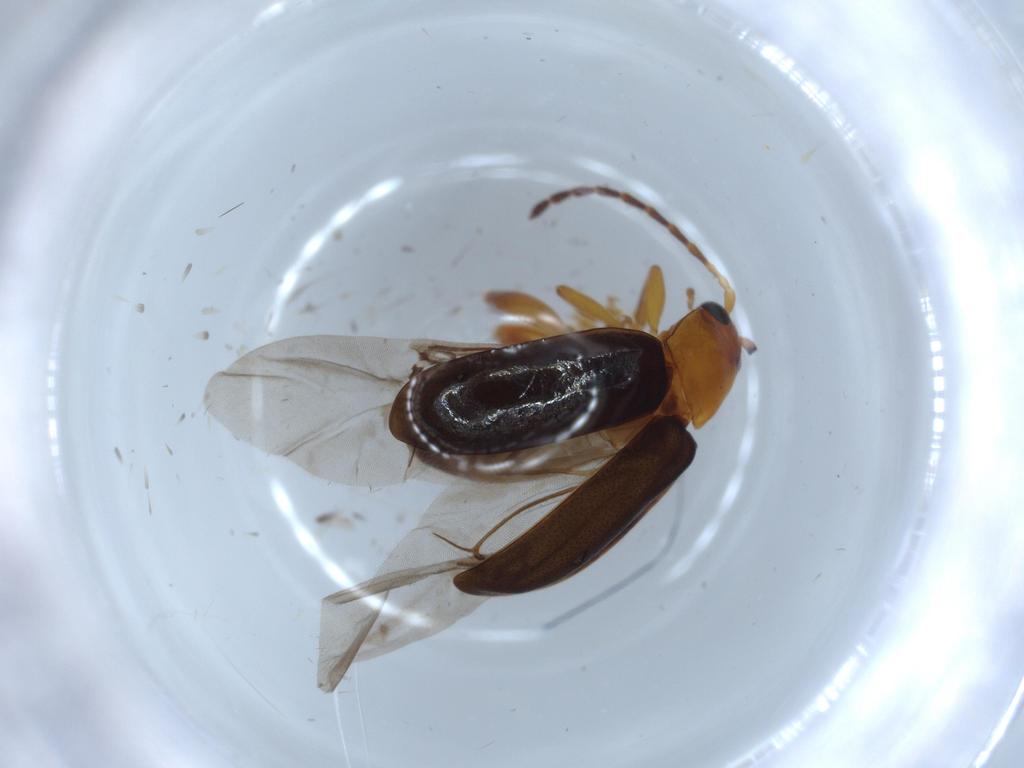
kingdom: Animalia
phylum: Arthropoda
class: Insecta
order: Coleoptera
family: Chrysomelidae
